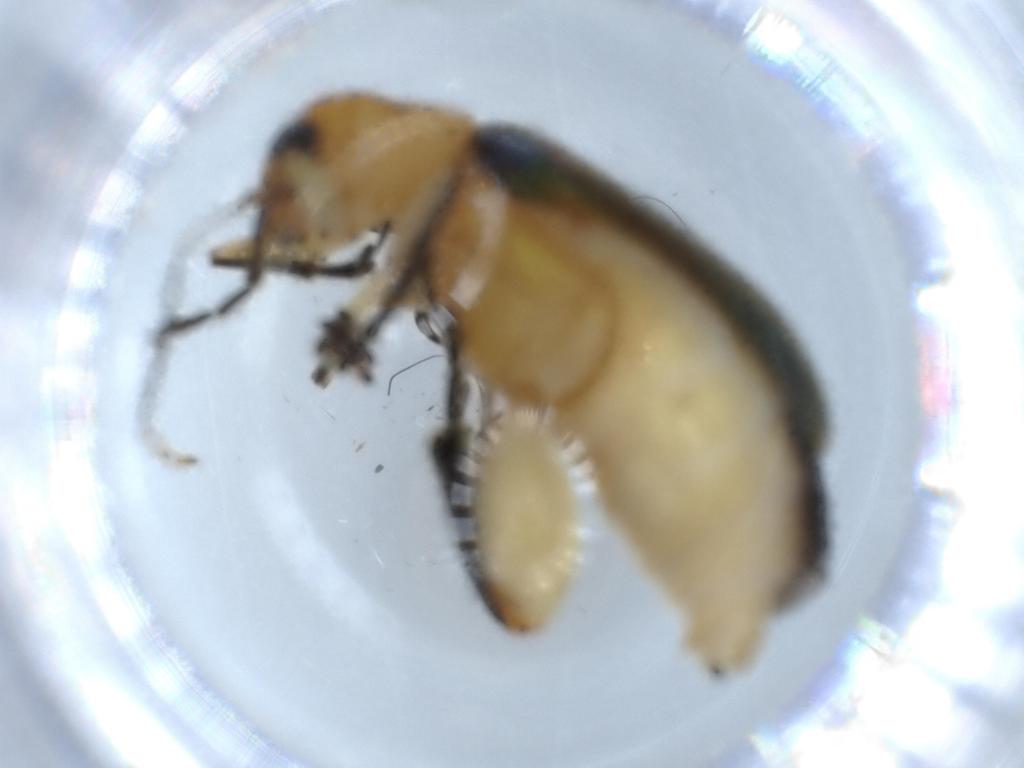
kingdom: Animalia
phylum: Arthropoda
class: Insecta
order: Coleoptera
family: Chrysomelidae
